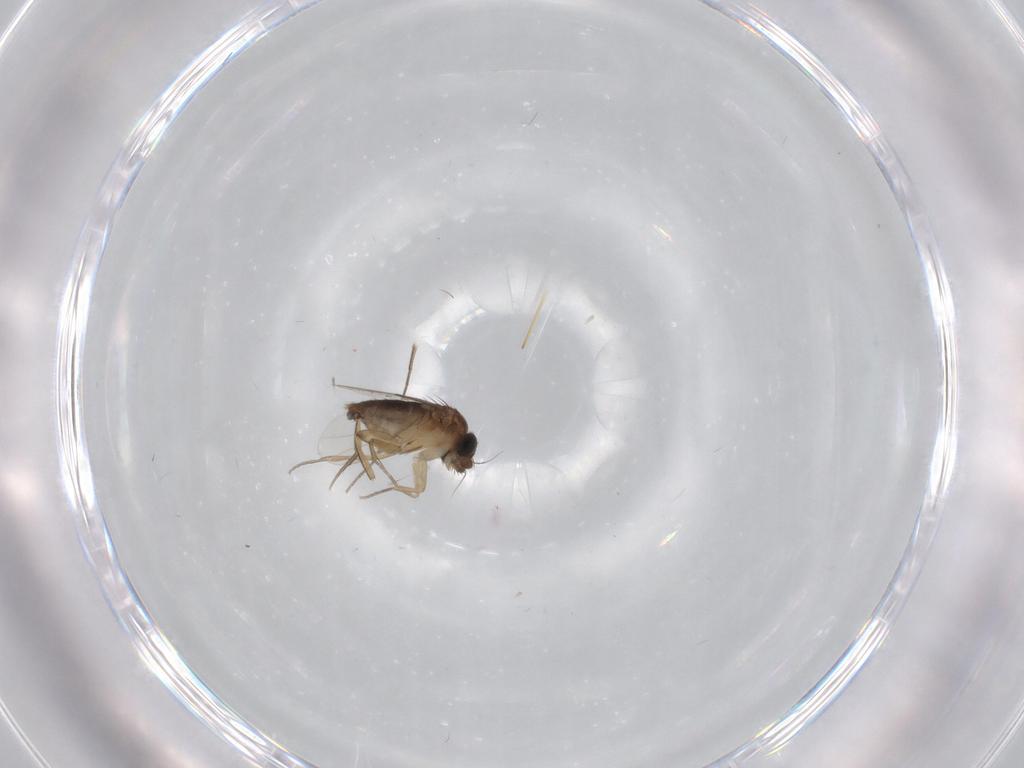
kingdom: Animalia
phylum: Arthropoda
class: Insecta
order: Diptera
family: Phoridae
